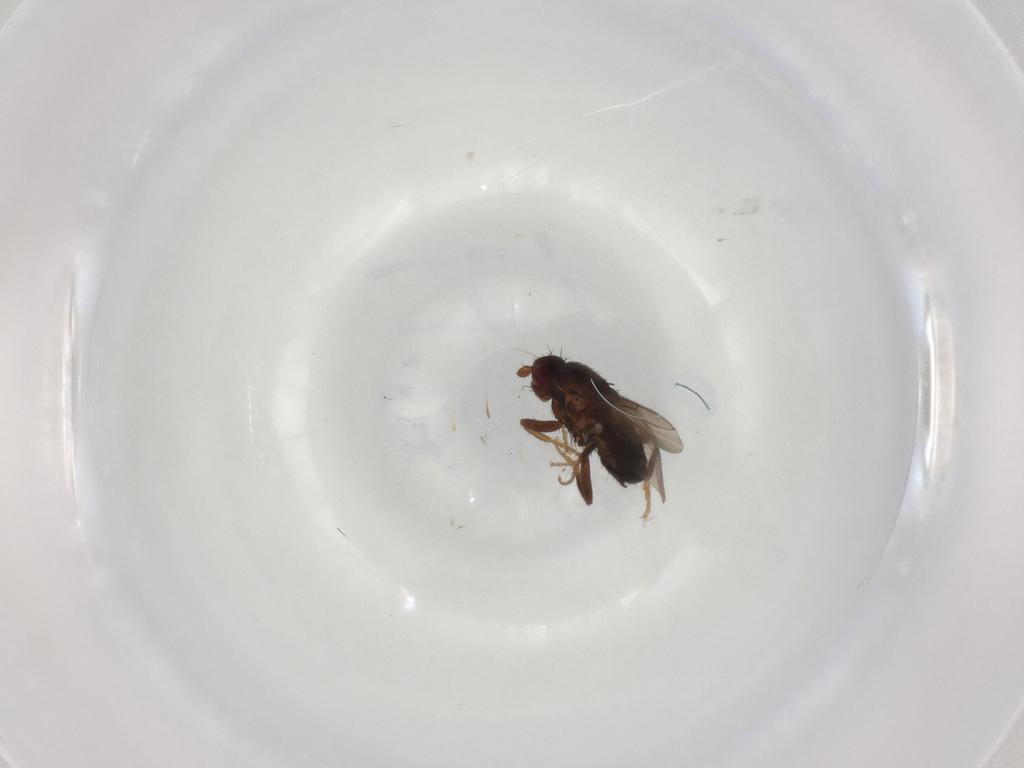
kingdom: Animalia
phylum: Arthropoda
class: Insecta
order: Diptera
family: Sphaeroceridae
